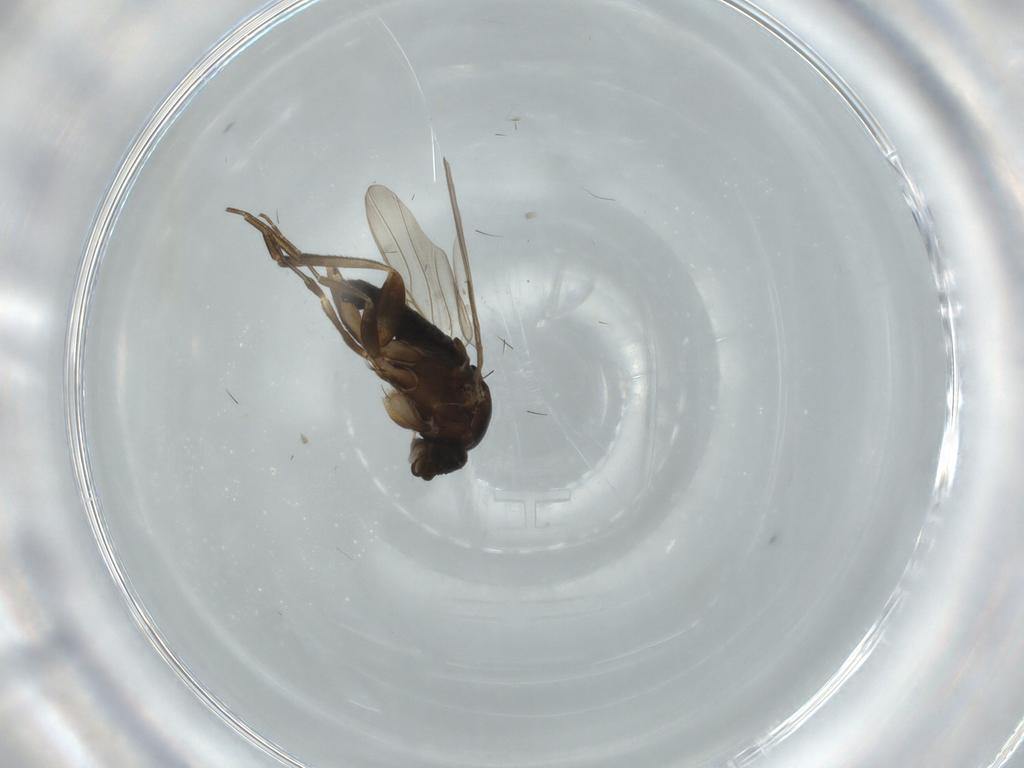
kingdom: Animalia
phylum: Arthropoda
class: Insecta
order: Diptera
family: Phoridae
